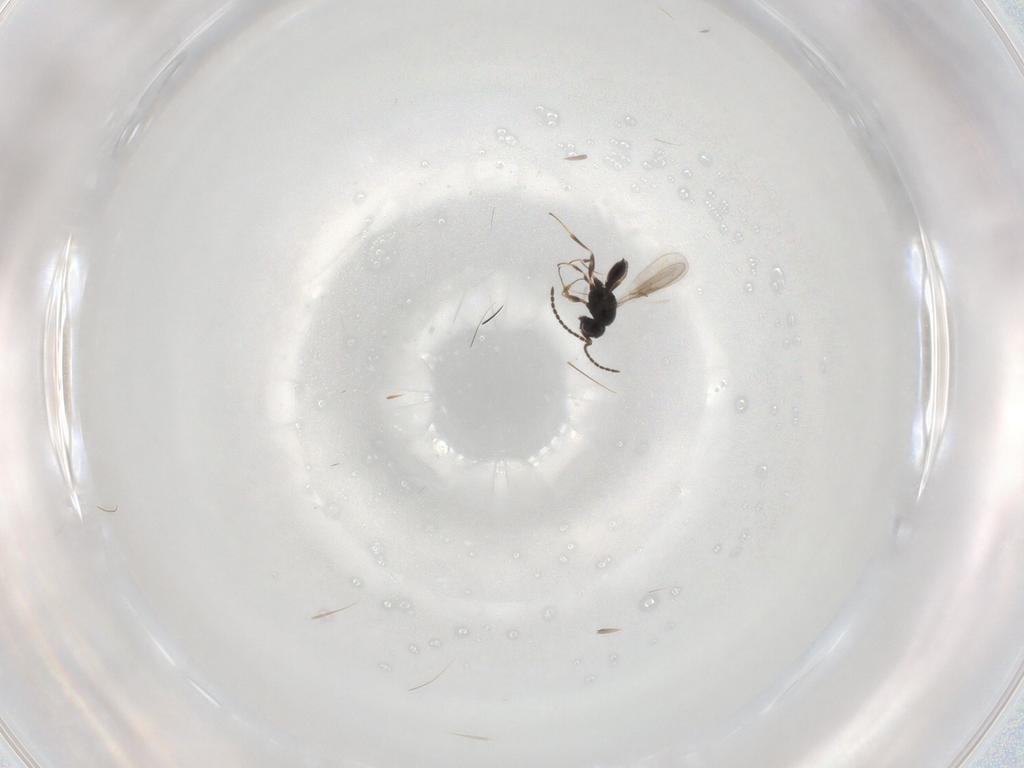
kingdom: Animalia
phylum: Arthropoda
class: Insecta
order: Hymenoptera
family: Scelionidae
